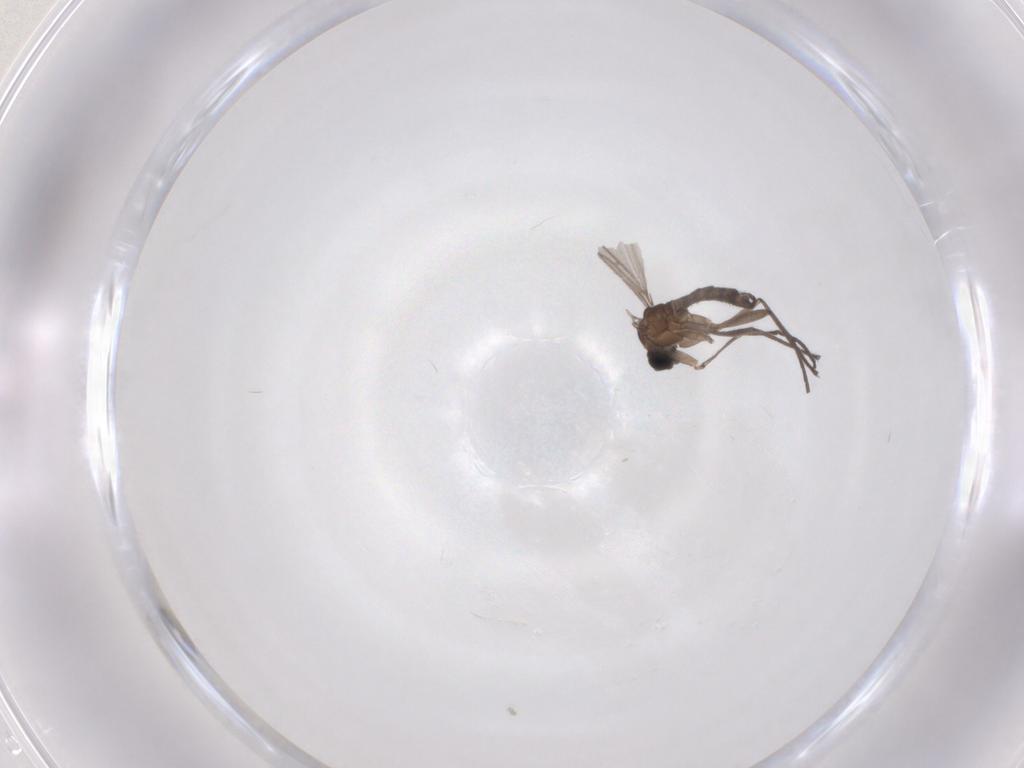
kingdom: Animalia
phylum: Arthropoda
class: Insecta
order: Diptera
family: Sciaridae
